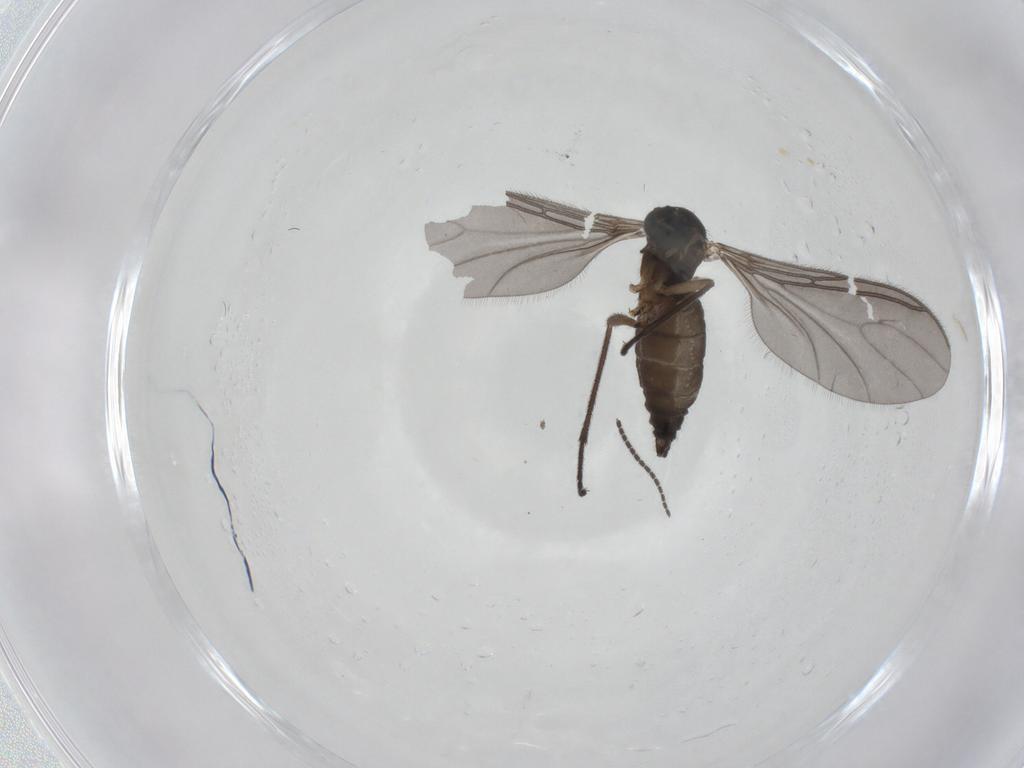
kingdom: Animalia
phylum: Arthropoda
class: Insecta
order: Diptera
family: Sciaridae
